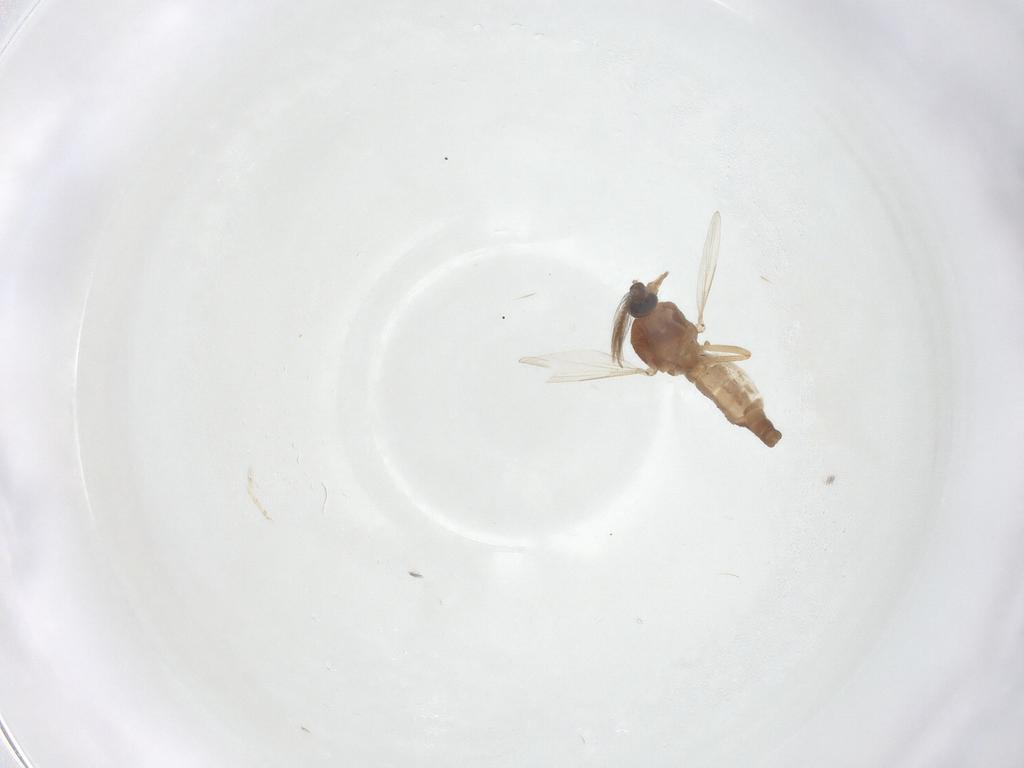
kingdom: Animalia
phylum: Arthropoda
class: Insecta
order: Diptera
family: Ceratopogonidae
